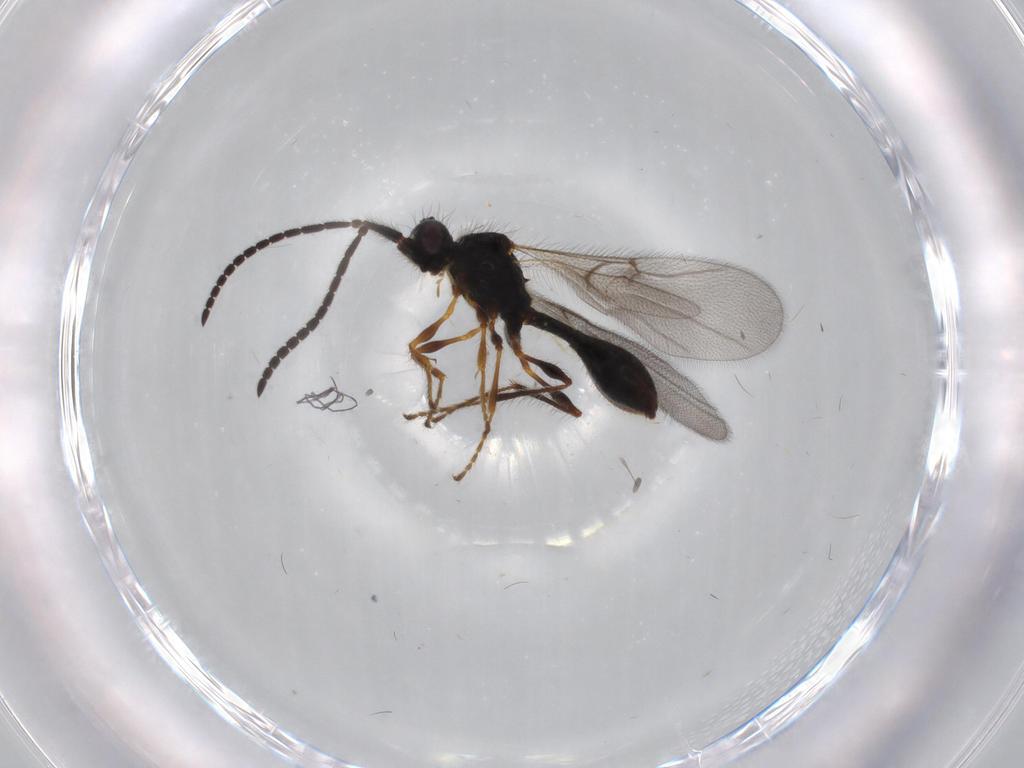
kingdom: Animalia
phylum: Arthropoda
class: Insecta
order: Hymenoptera
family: Diapriidae
